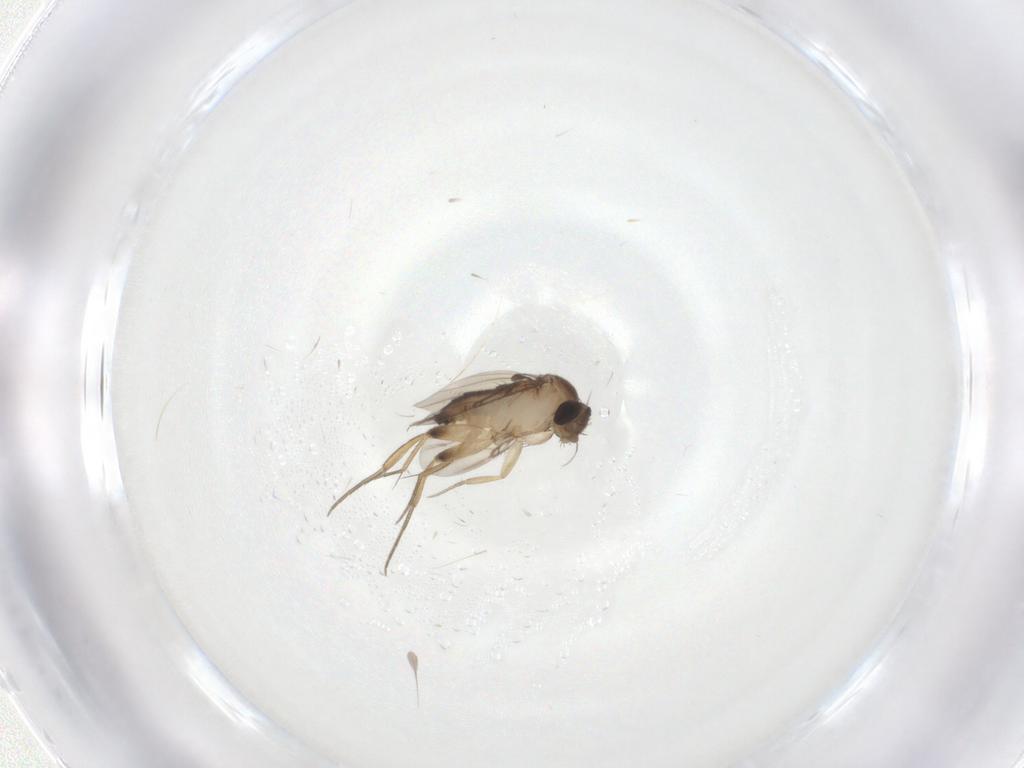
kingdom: Animalia
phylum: Arthropoda
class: Insecta
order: Diptera
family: Phoridae
